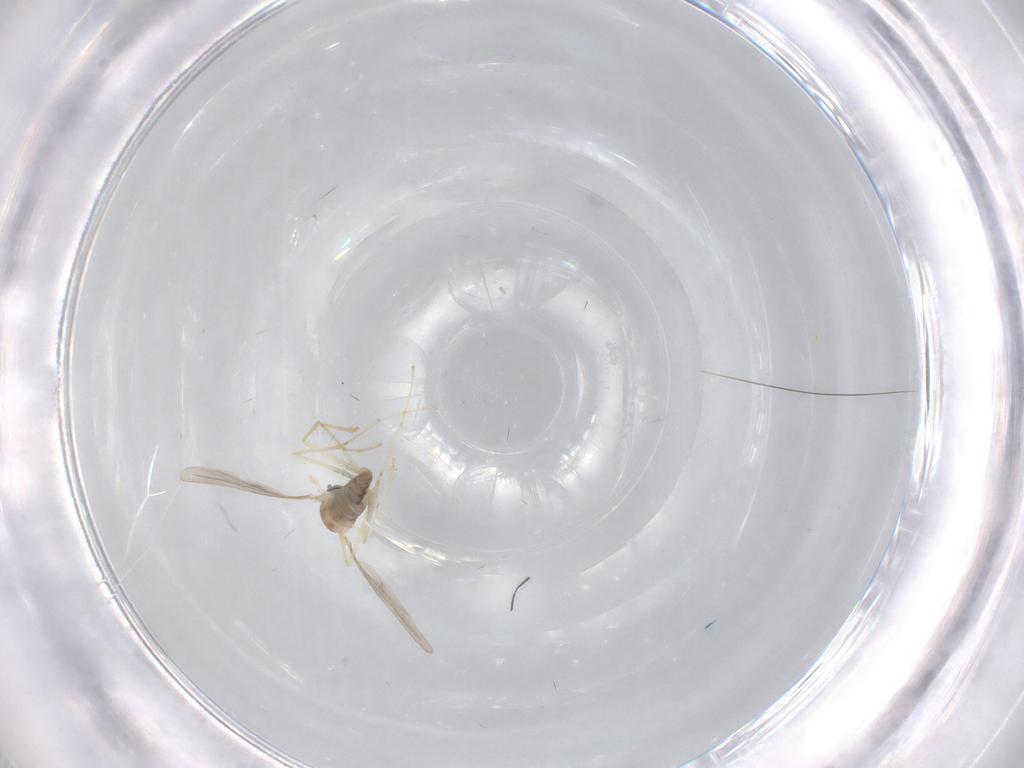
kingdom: Animalia
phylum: Arthropoda
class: Insecta
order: Diptera
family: Cecidomyiidae
